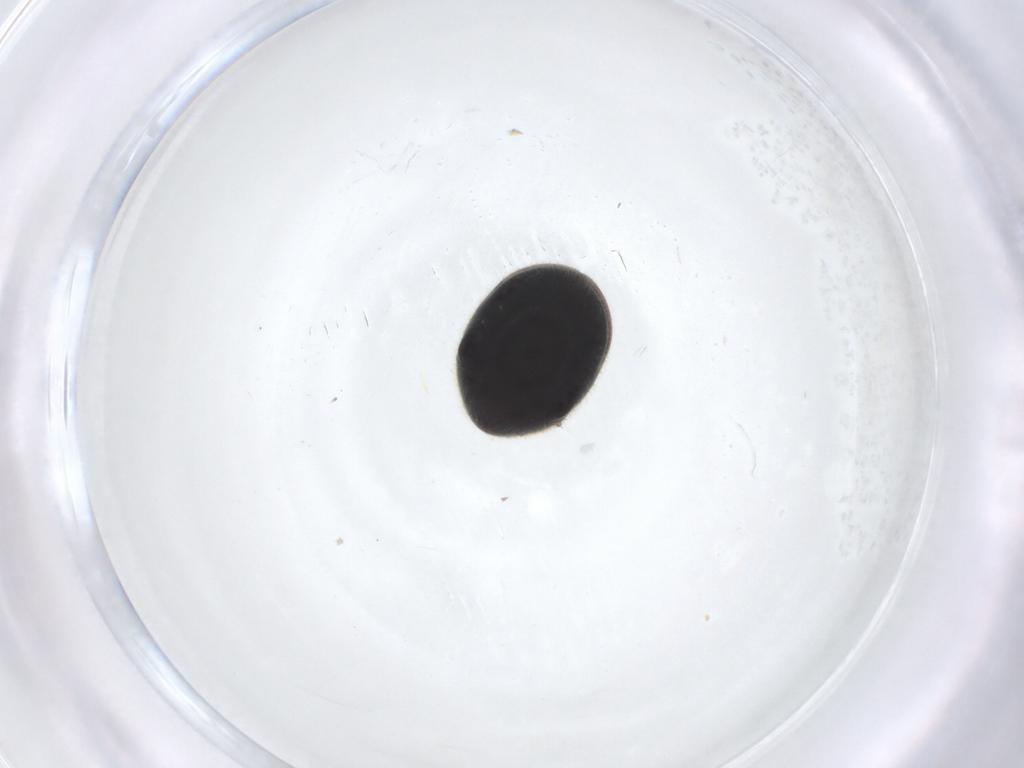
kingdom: Animalia
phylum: Arthropoda
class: Insecta
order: Coleoptera
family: Ptinidae
